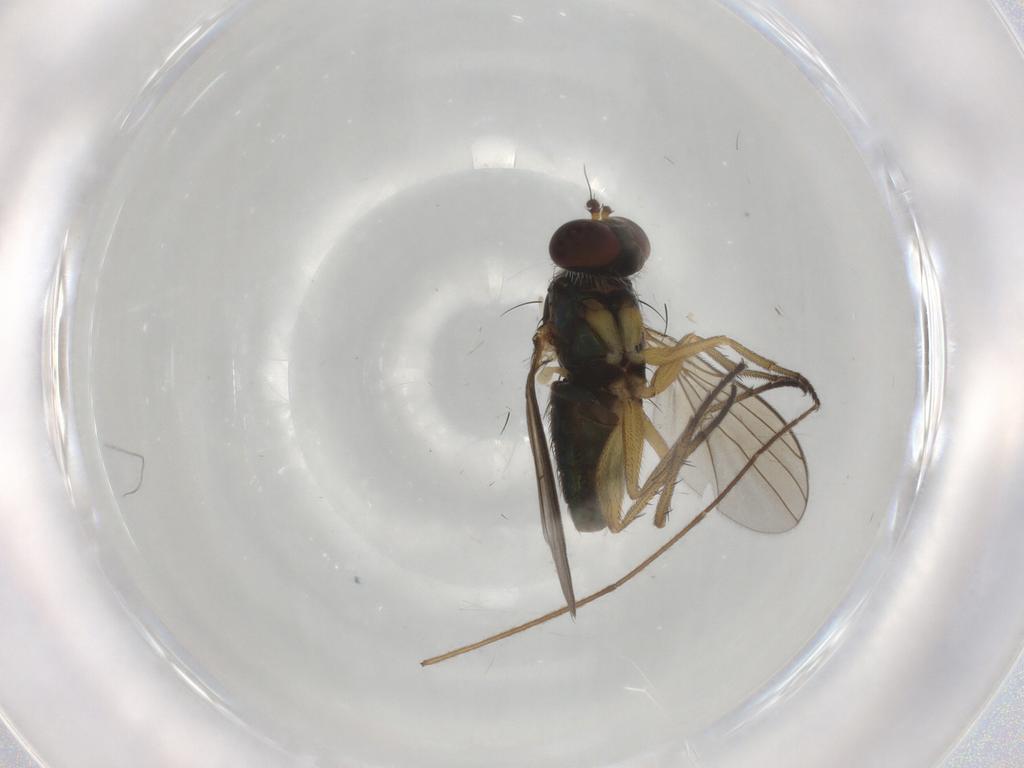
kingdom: Animalia
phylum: Arthropoda
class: Insecta
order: Diptera
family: Dolichopodidae
